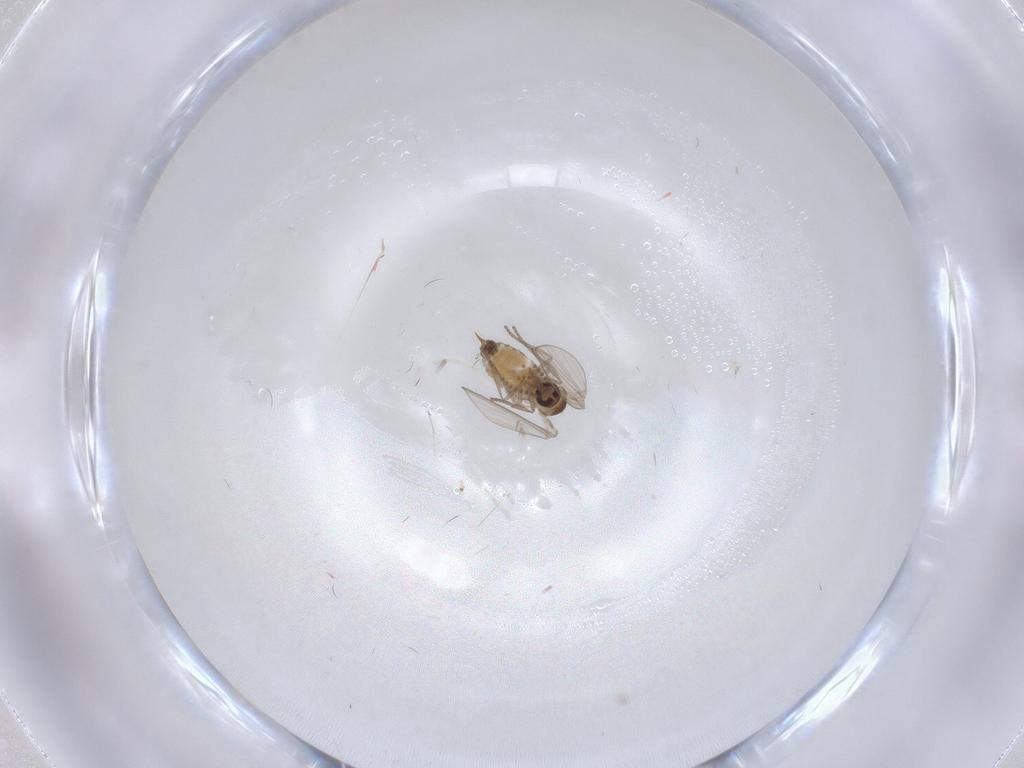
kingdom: Animalia
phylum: Arthropoda
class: Insecta
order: Diptera
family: Psychodidae
